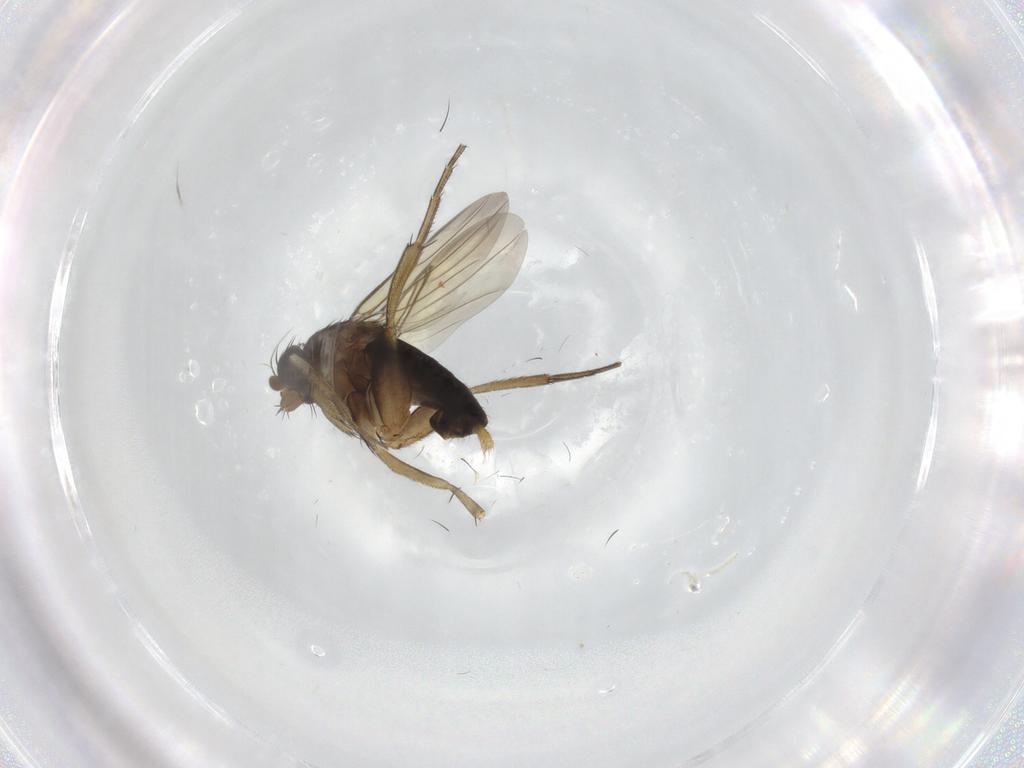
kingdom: Animalia
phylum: Arthropoda
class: Insecta
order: Diptera
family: Phoridae
